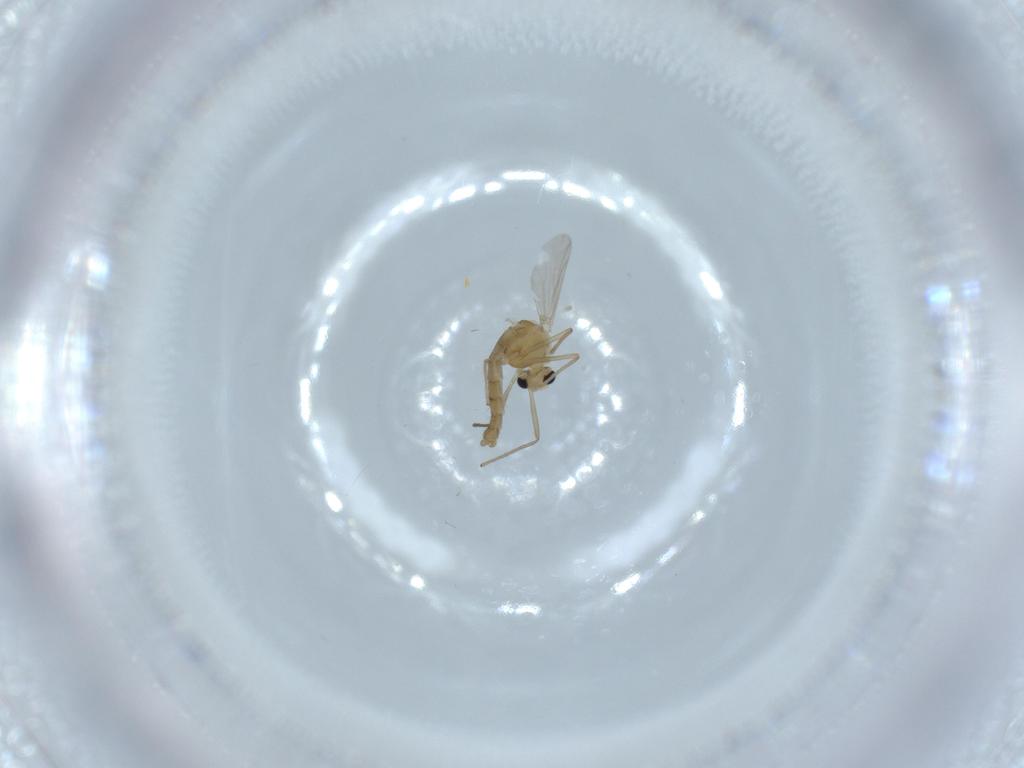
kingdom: Animalia
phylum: Arthropoda
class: Insecta
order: Diptera
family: Chironomidae
